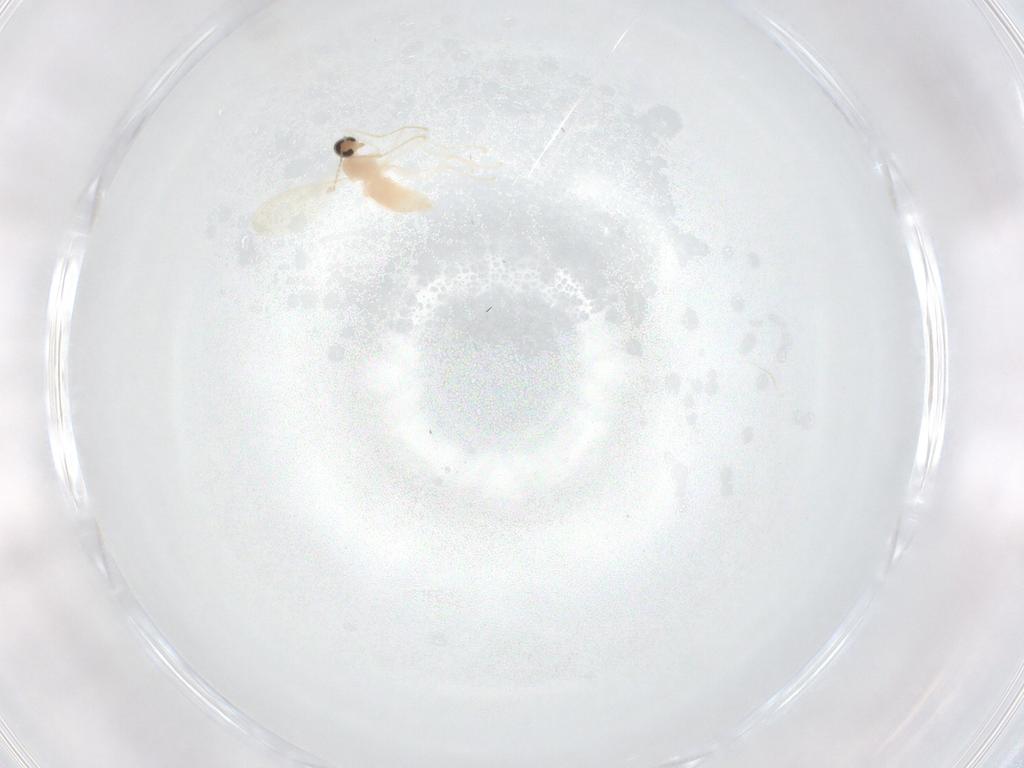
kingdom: Animalia
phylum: Arthropoda
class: Insecta
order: Diptera
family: Cecidomyiidae
